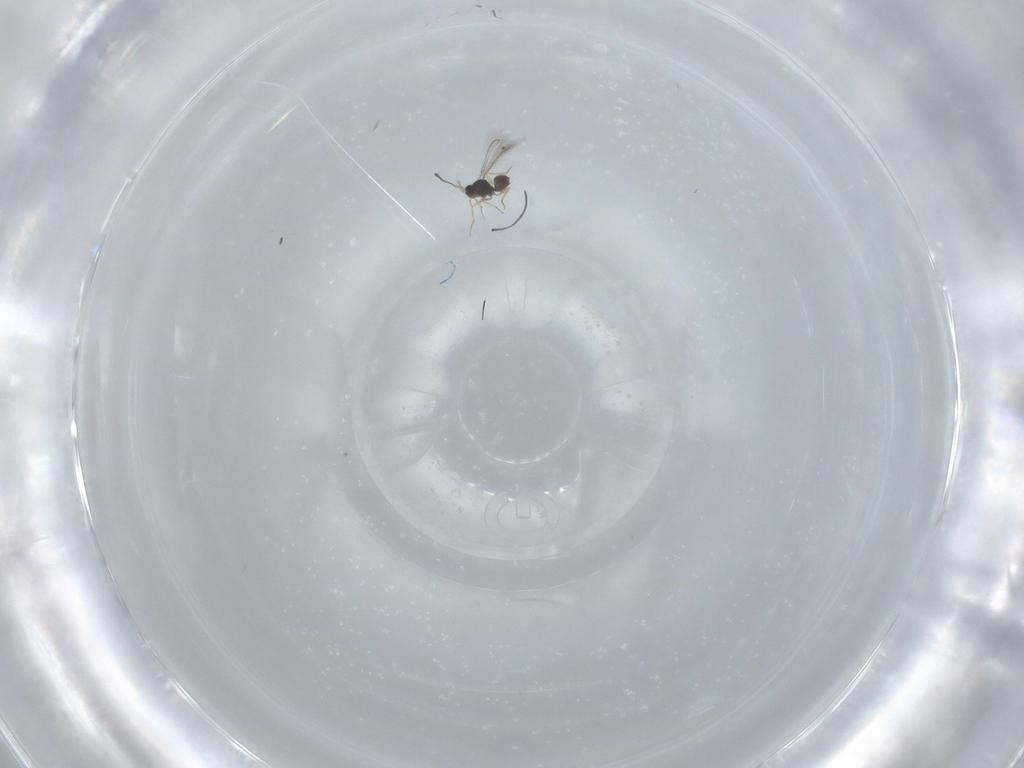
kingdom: Animalia
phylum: Arthropoda
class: Insecta
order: Hymenoptera
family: Mymaridae
